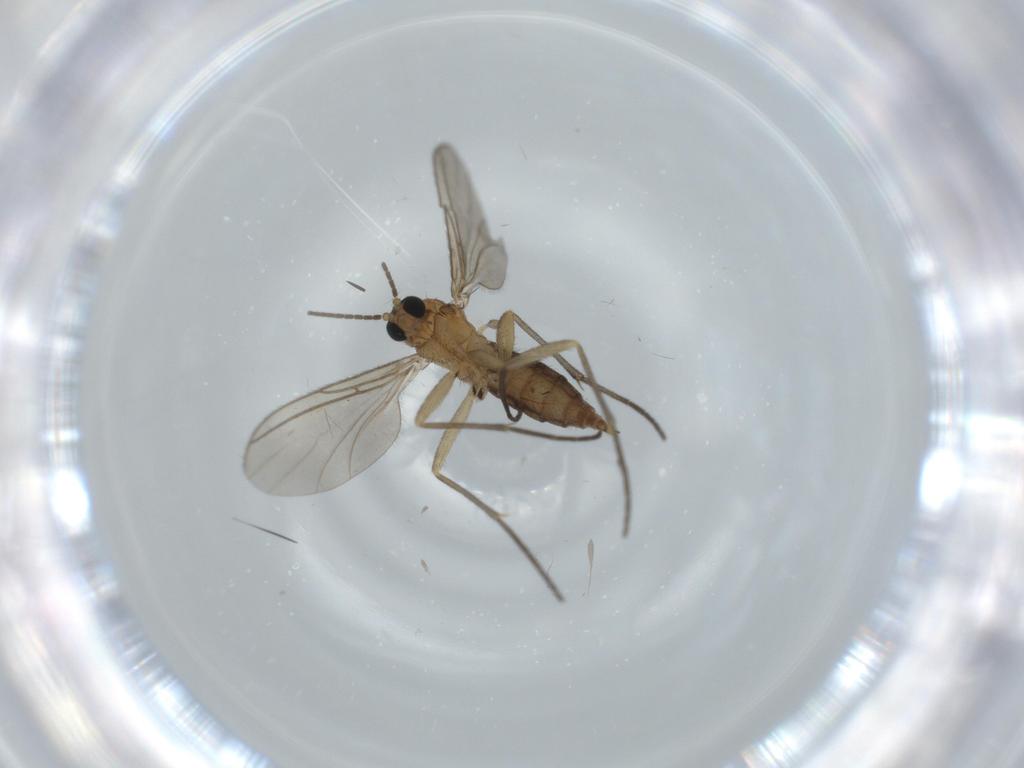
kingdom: Animalia
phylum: Arthropoda
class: Insecta
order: Diptera
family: Sciaridae
